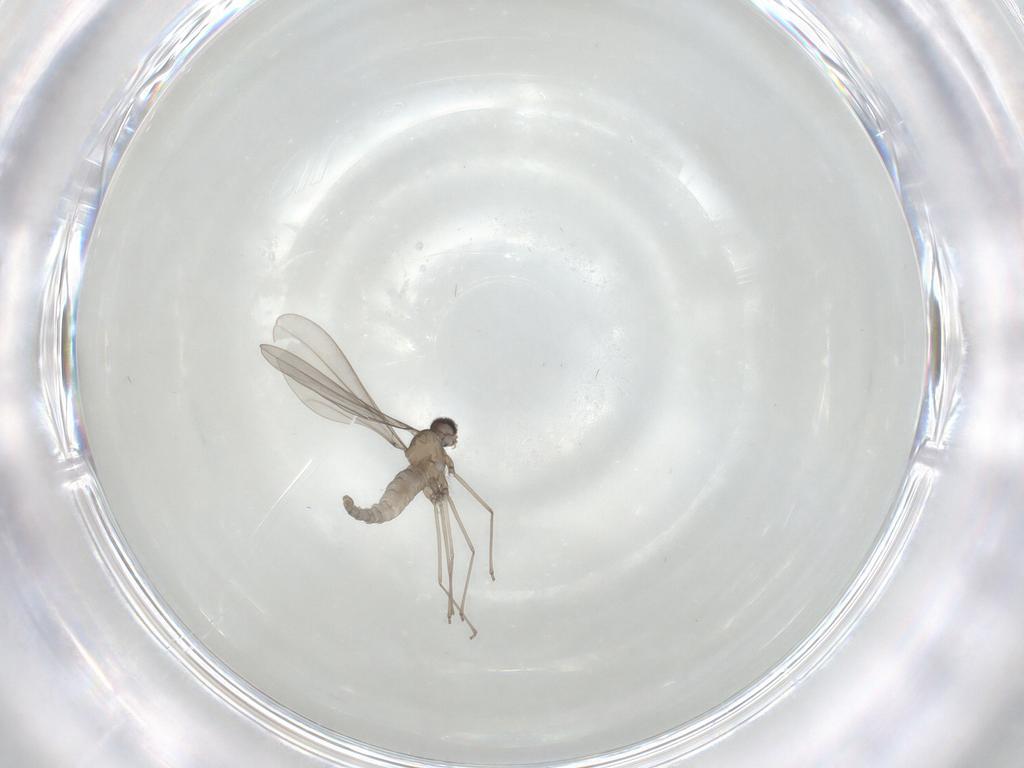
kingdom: Animalia
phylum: Arthropoda
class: Insecta
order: Diptera
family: Cecidomyiidae
